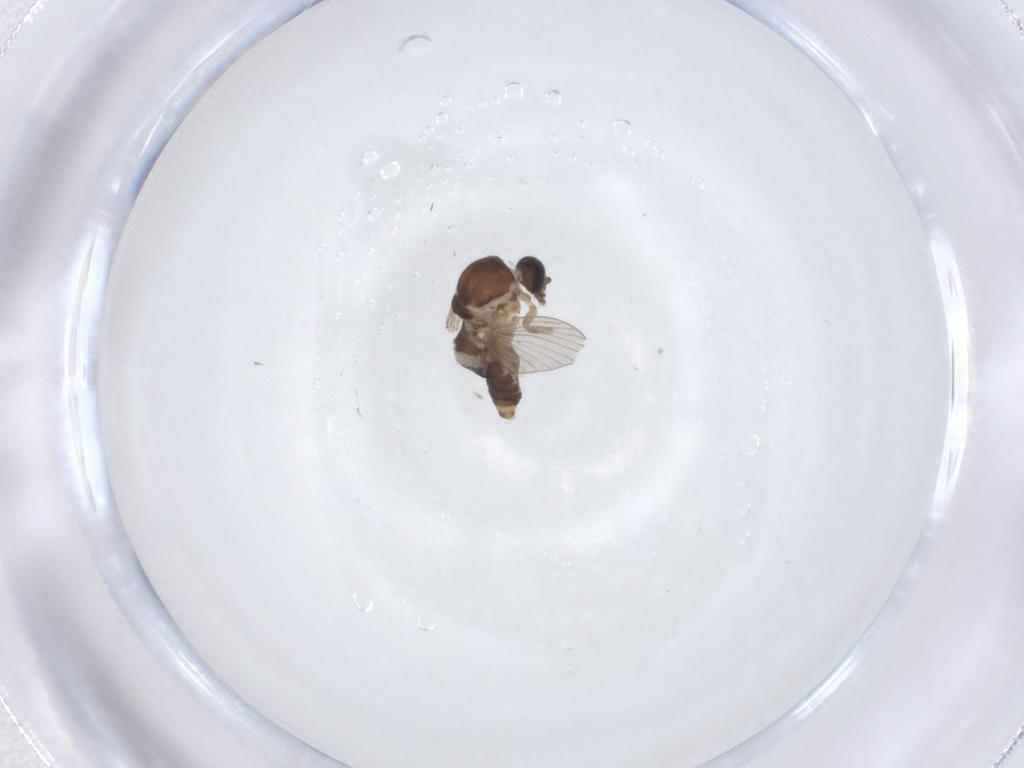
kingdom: Animalia
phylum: Arthropoda
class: Insecta
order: Diptera
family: Ceratopogonidae
